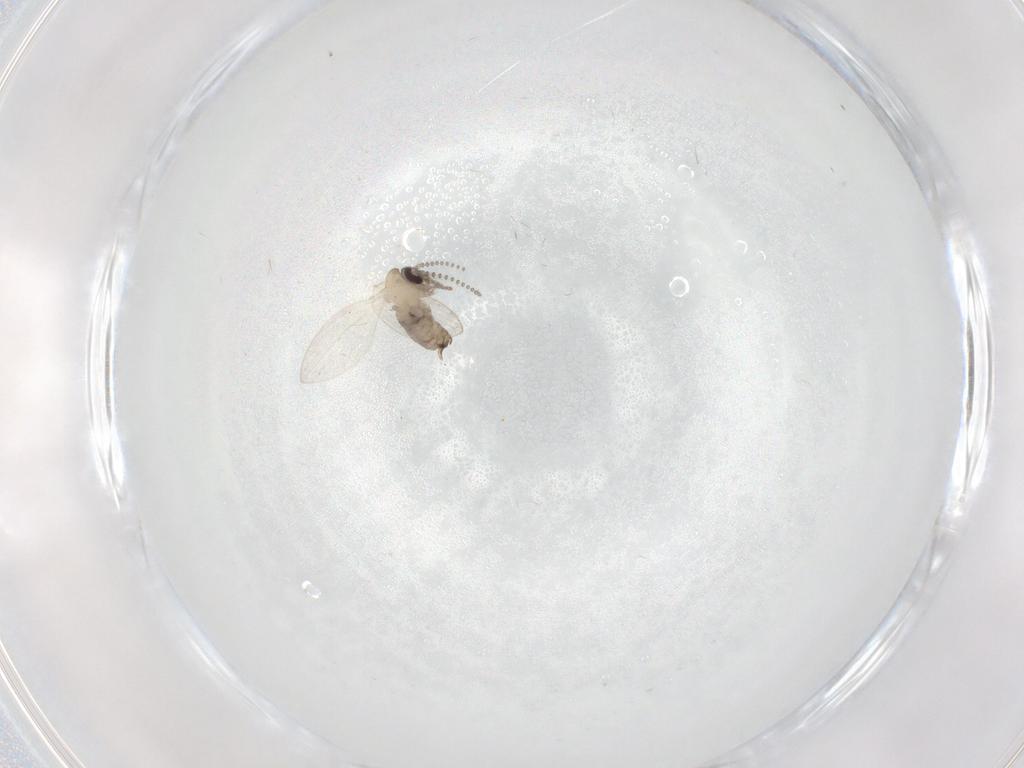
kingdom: Animalia
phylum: Arthropoda
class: Insecta
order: Diptera
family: Psychodidae
